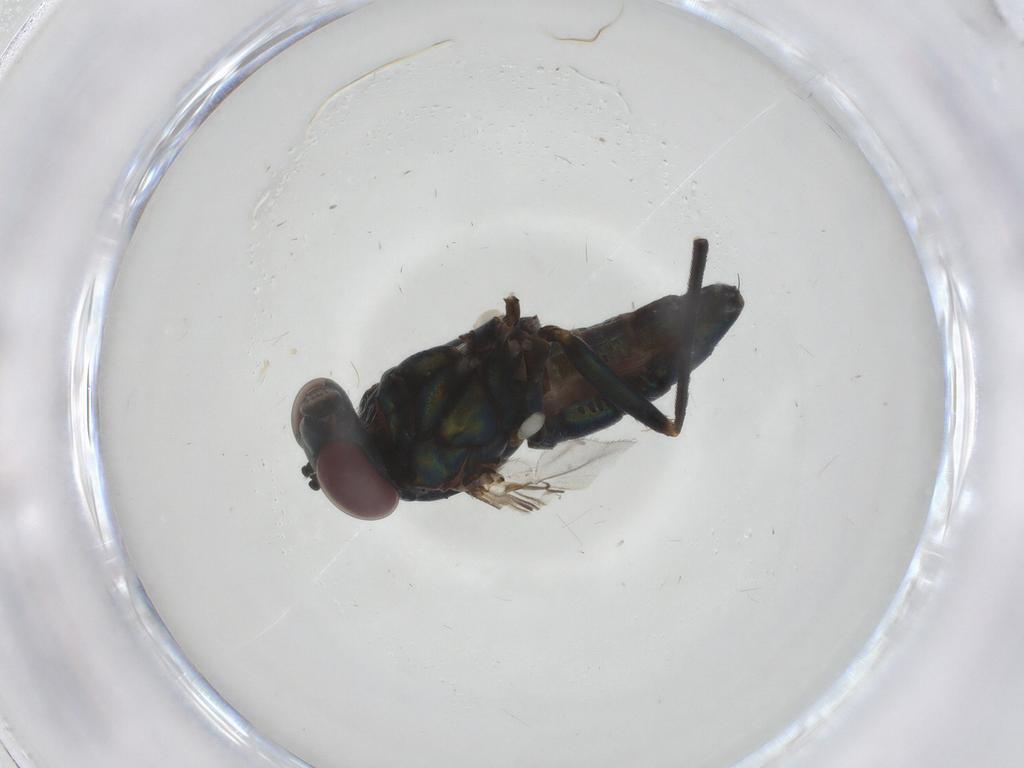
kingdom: Animalia
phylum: Arthropoda
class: Insecta
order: Diptera
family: Dolichopodidae
